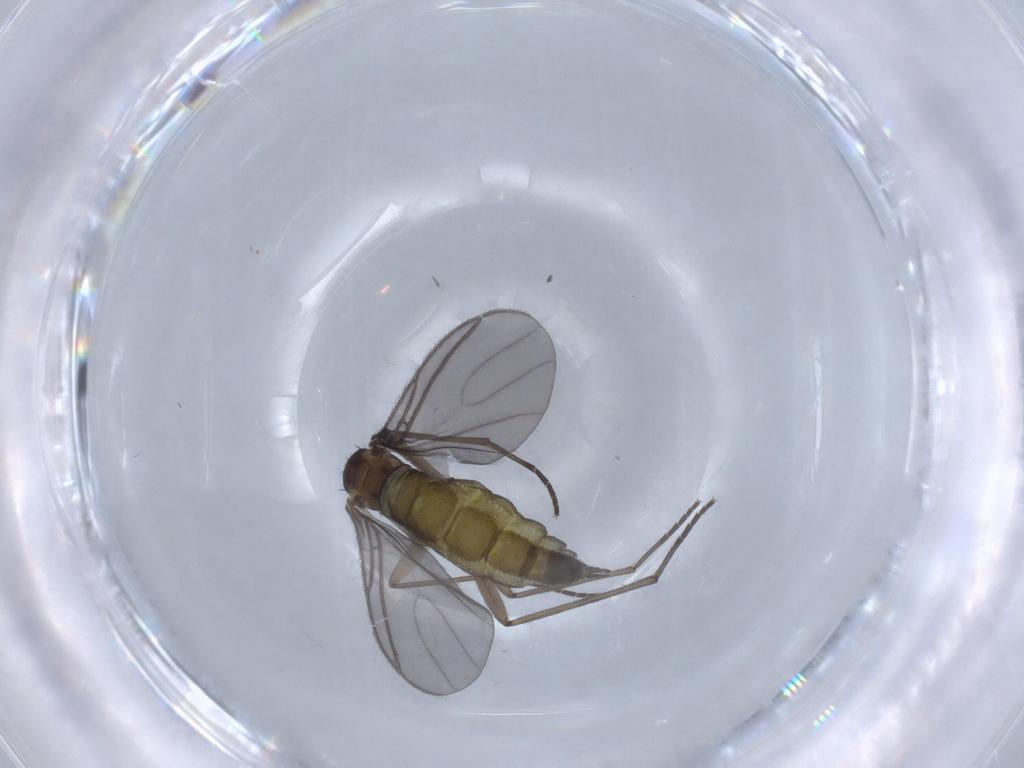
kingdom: Animalia
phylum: Arthropoda
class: Insecta
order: Diptera
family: Sciaridae
